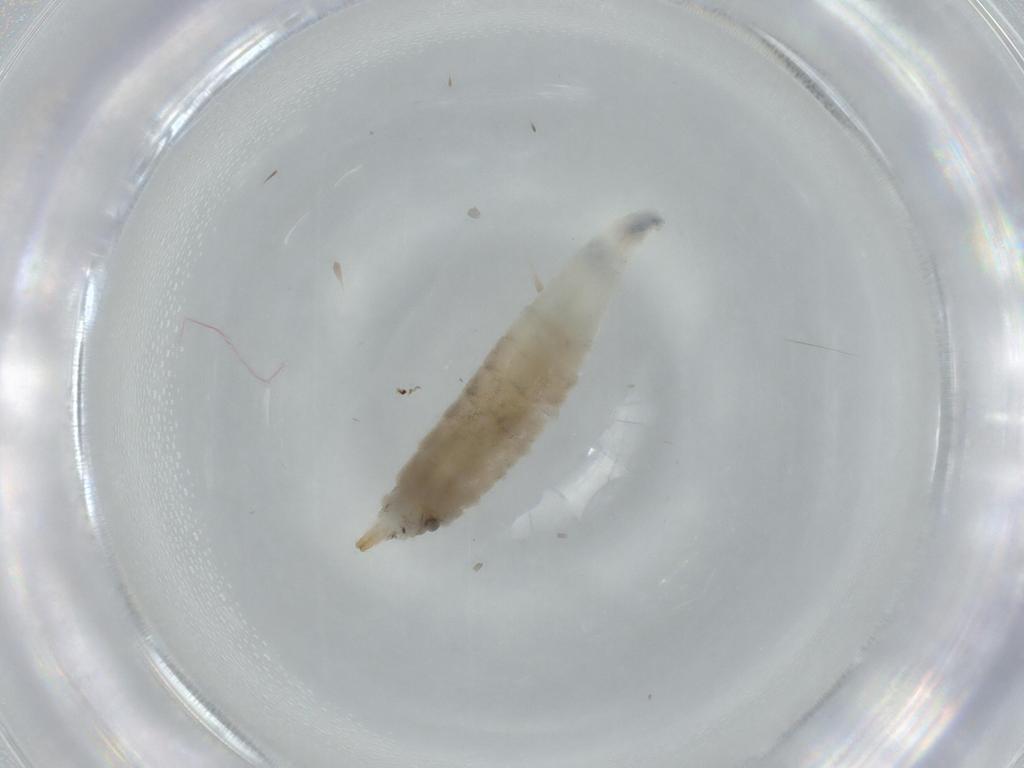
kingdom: Animalia
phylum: Arthropoda
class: Insecta
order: Diptera
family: Drosophilidae
